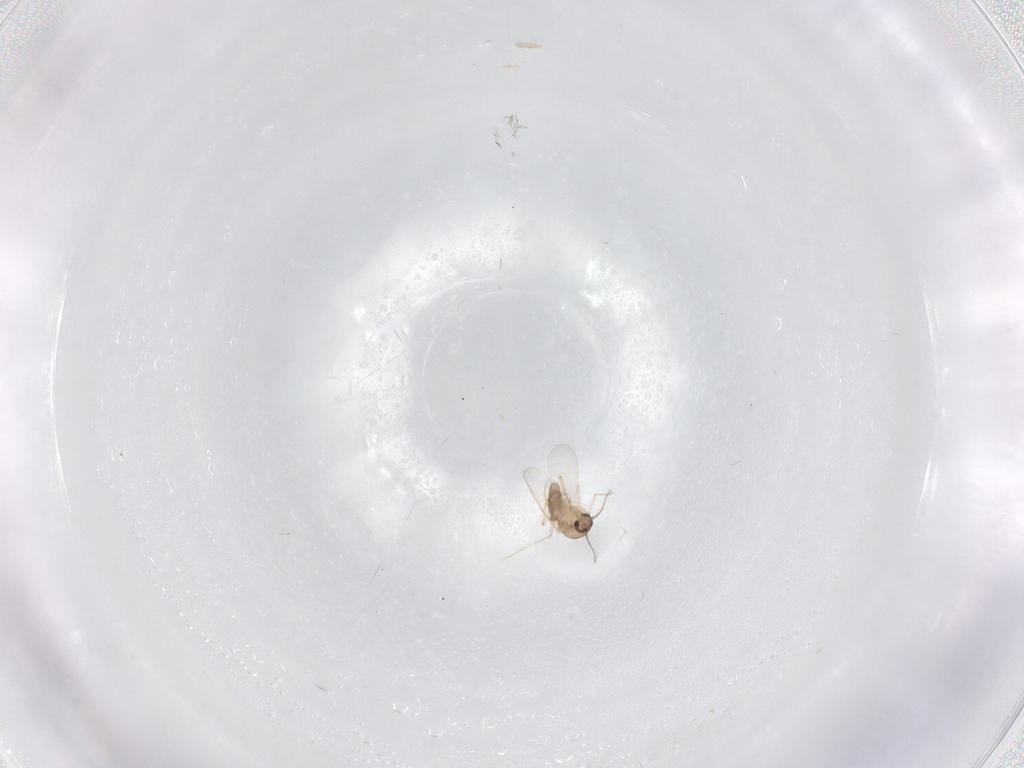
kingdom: Animalia
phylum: Arthropoda
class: Insecta
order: Diptera
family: Ceratopogonidae
